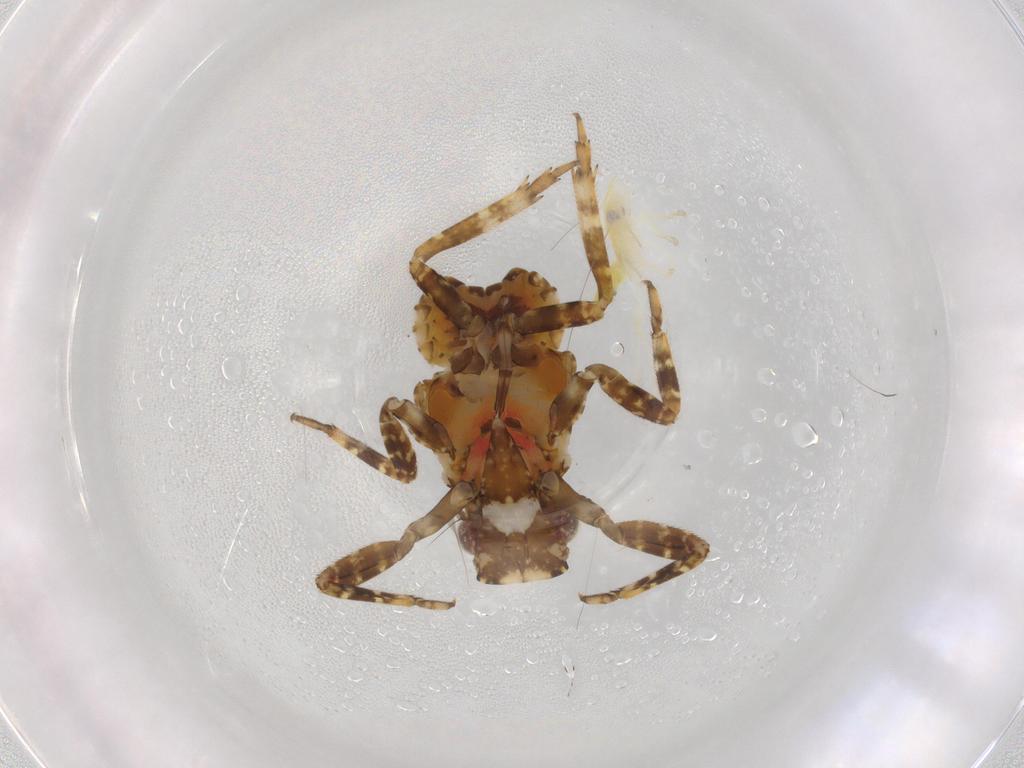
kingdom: Animalia
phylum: Arthropoda
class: Insecta
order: Hemiptera
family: Fulgoridae
